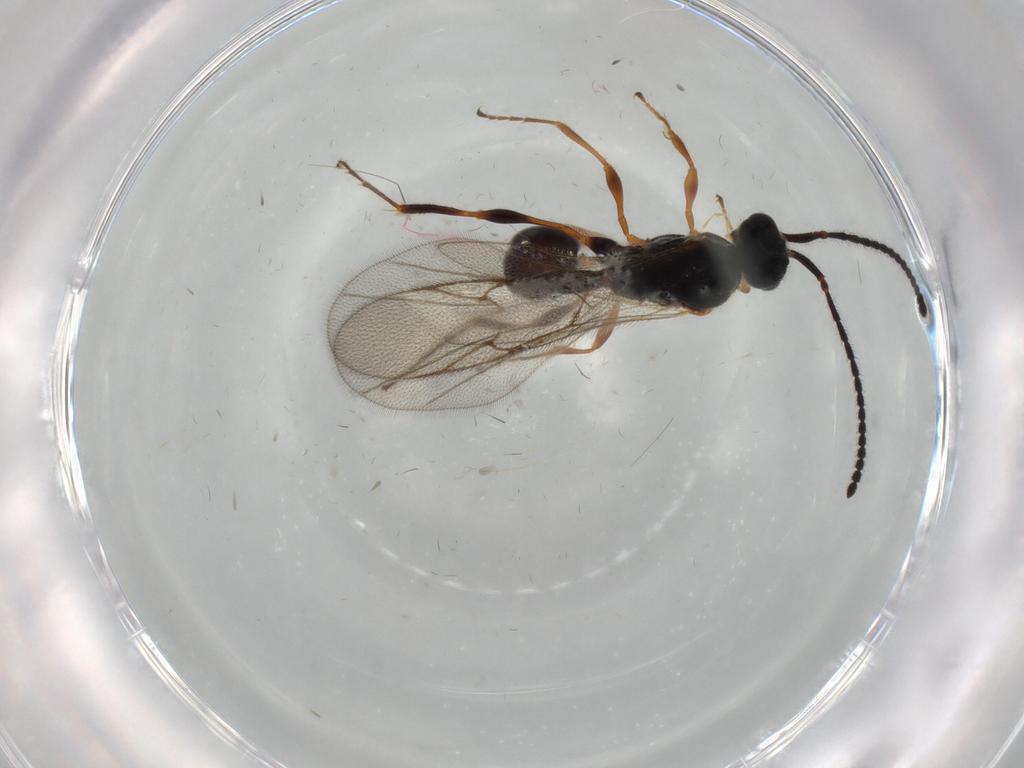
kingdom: Animalia
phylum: Arthropoda
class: Insecta
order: Hymenoptera
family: Diapriidae
